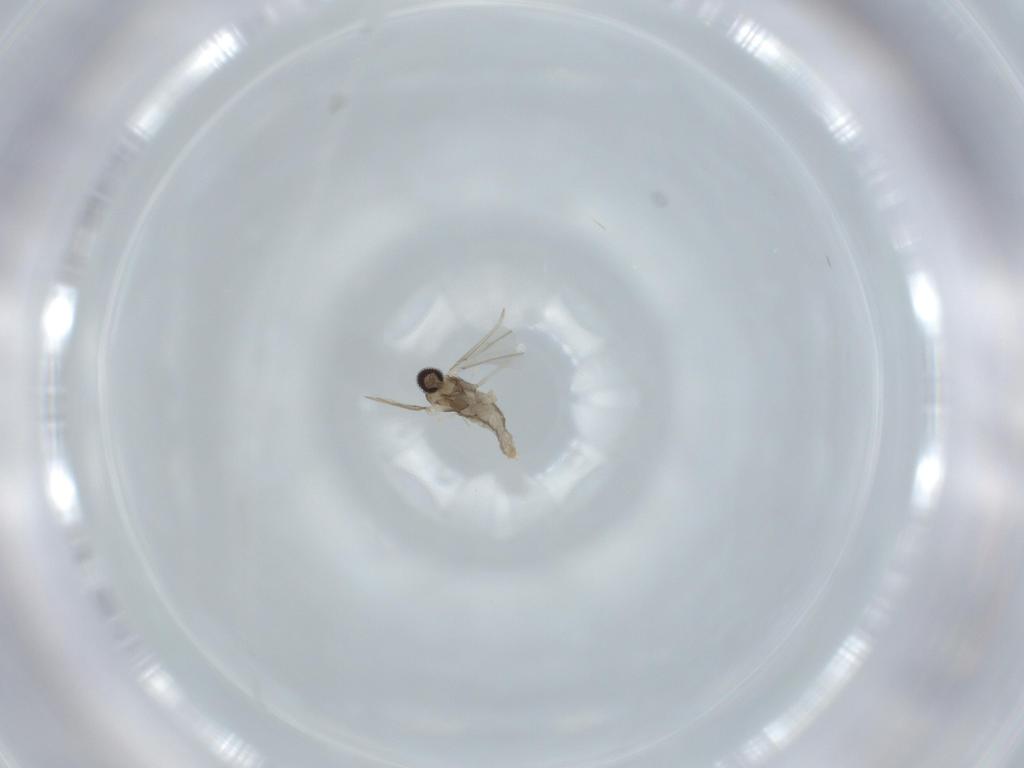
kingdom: Animalia
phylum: Arthropoda
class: Insecta
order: Diptera
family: Cecidomyiidae
